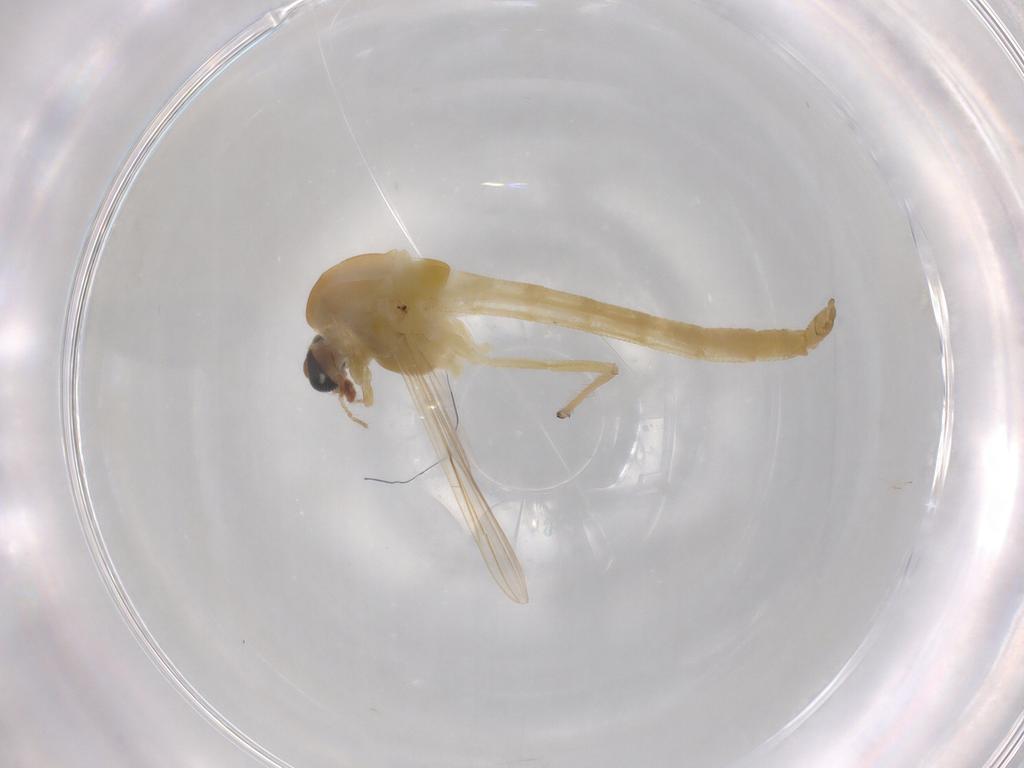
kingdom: Animalia
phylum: Arthropoda
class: Insecta
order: Diptera
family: Chironomidae
